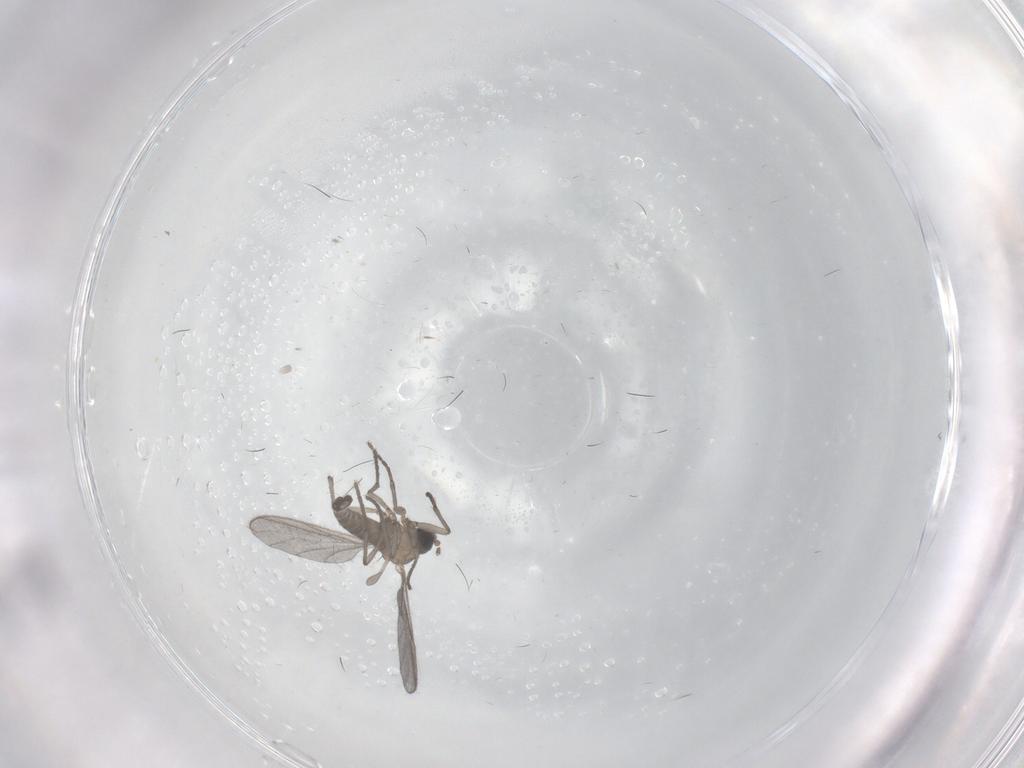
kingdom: Animalia
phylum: Arthropoda
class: Insecta
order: Diptera
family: Sciaridae
